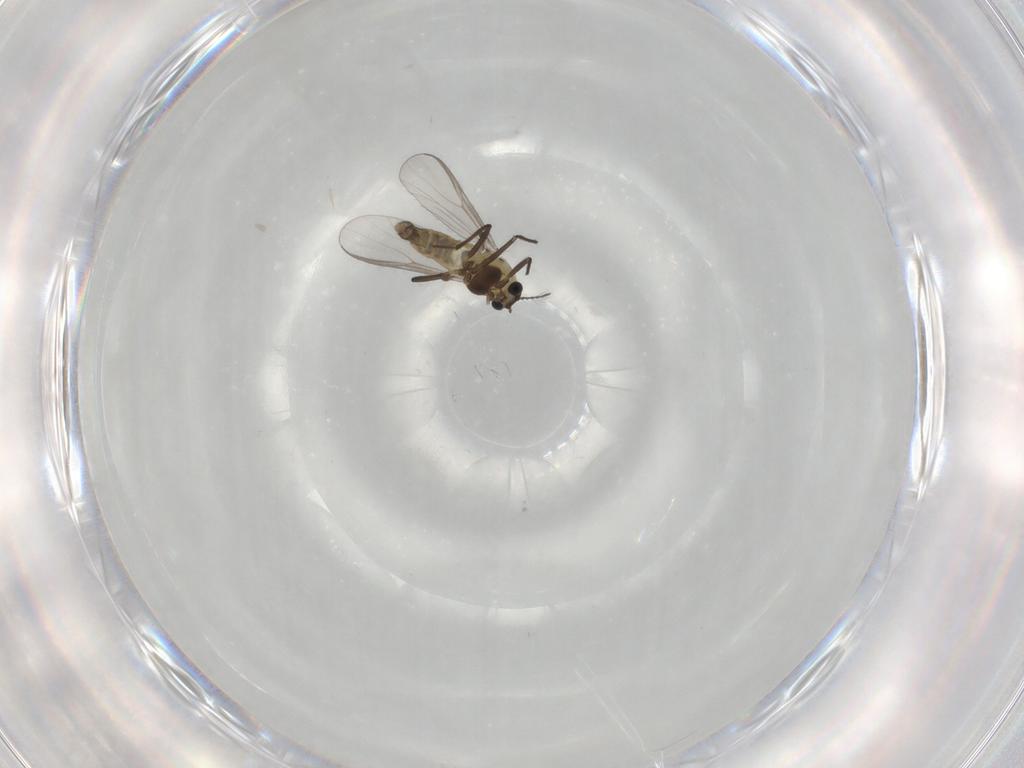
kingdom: Animalia
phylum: Arthropoda
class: Insecta
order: Diptera
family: Chironomidae
